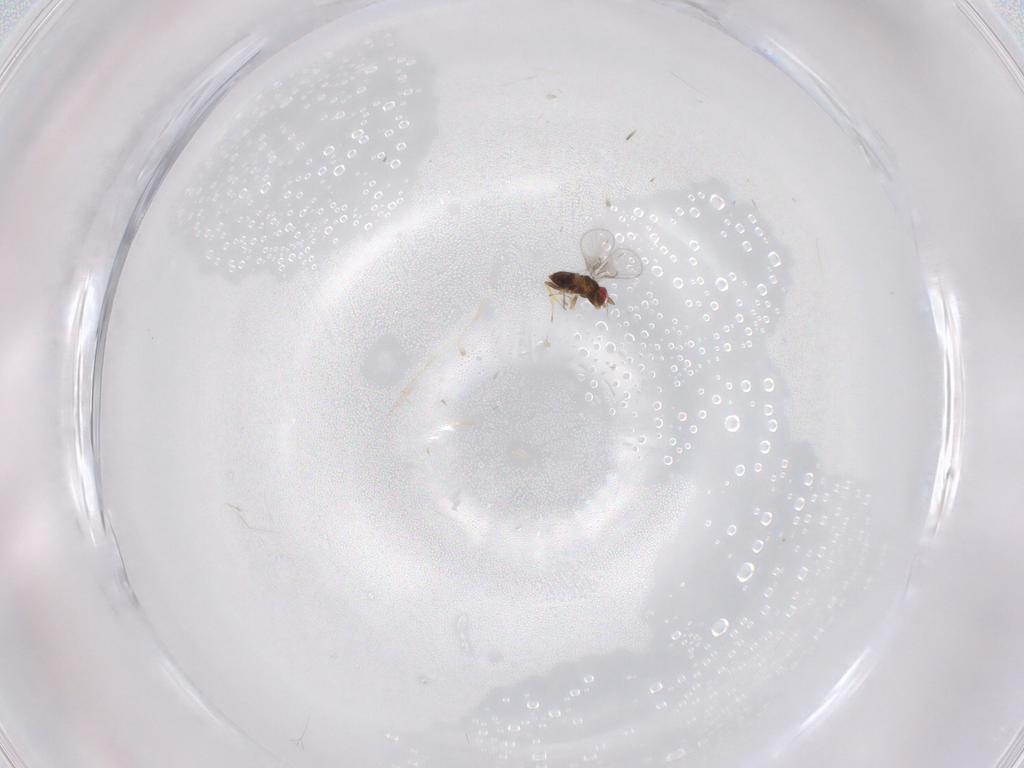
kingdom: Animalia
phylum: Arthropoda
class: Insecta
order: Hymenoptera
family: Trichogrammatidae
